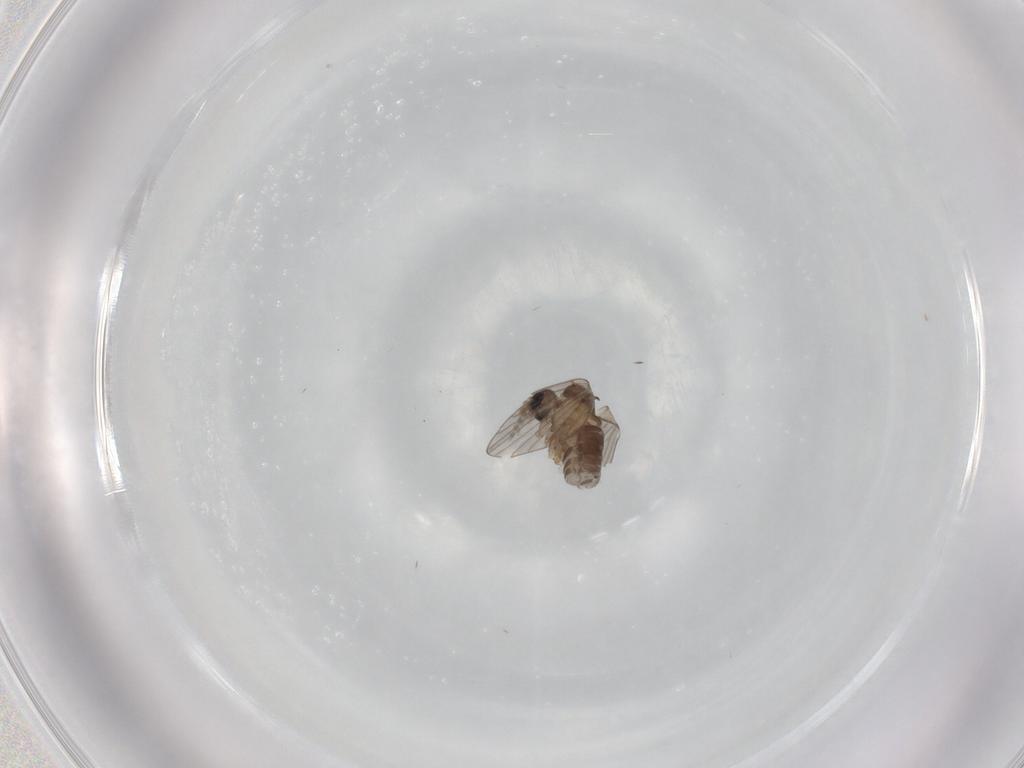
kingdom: Animalia
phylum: Arthropoda
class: Insecta
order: Diptera
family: Psychodidae
